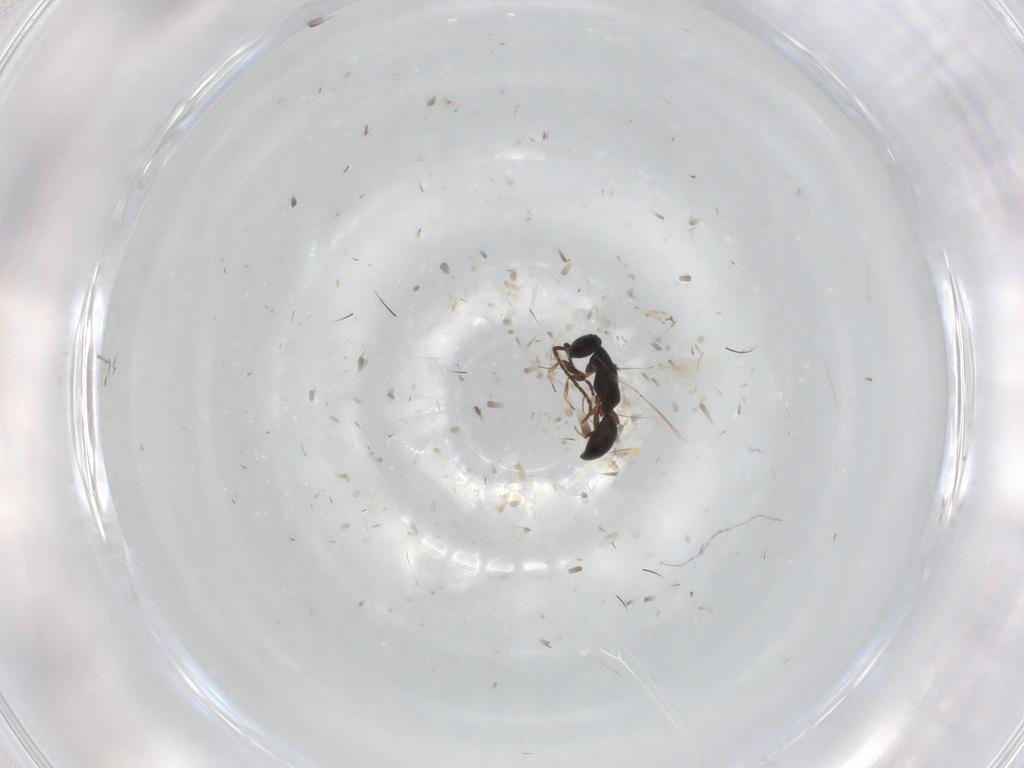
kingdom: Animalia
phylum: Arthropoda
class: Insecta
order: Hymenoptera
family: Bethylidae
